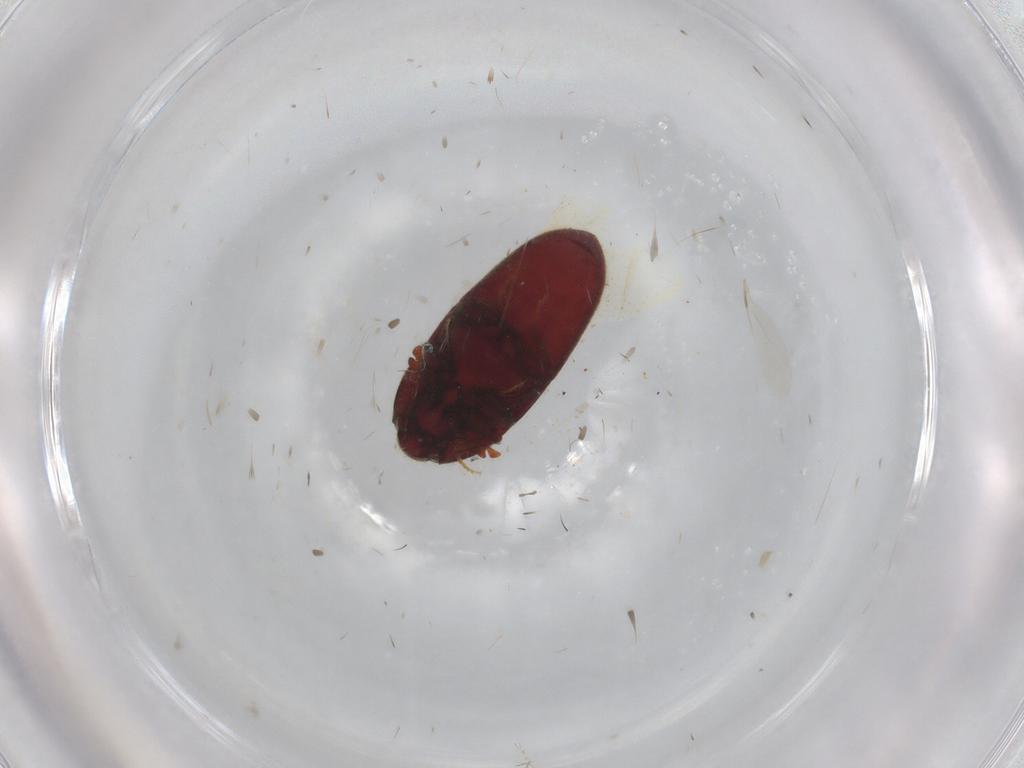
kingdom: Animalia
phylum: Arthropoda
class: Insecta
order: Coleoptera
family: Throscidae
